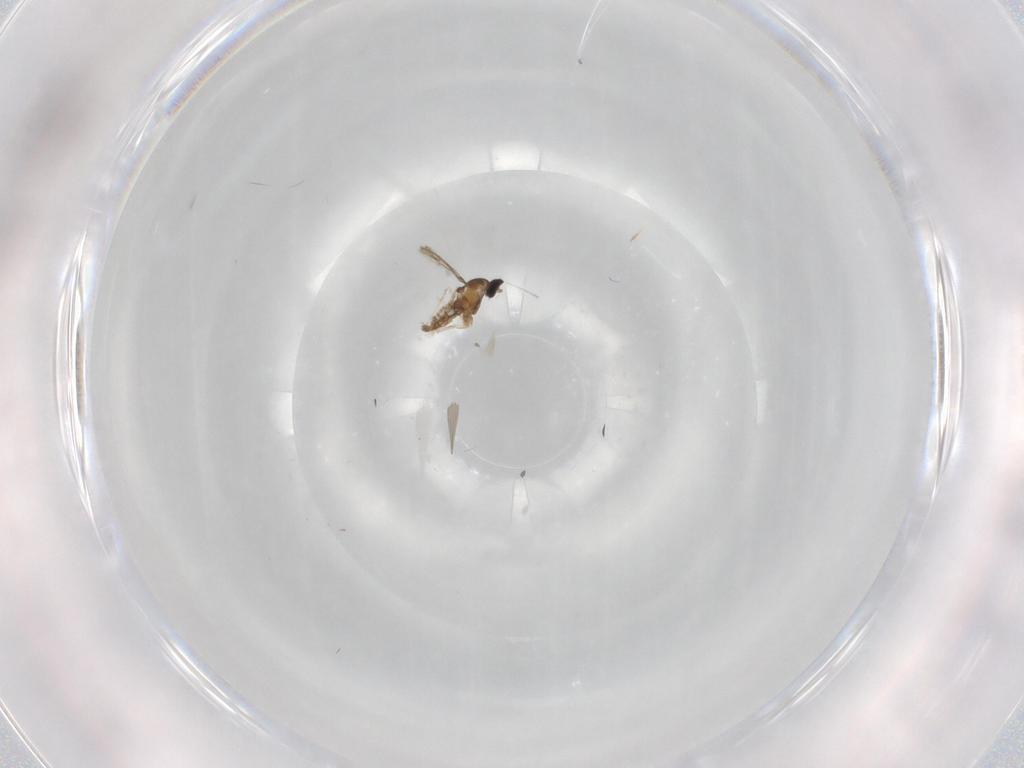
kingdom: Animalia
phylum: Arthropoda
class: Insecta
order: Diptera
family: Cecidomyiidae
